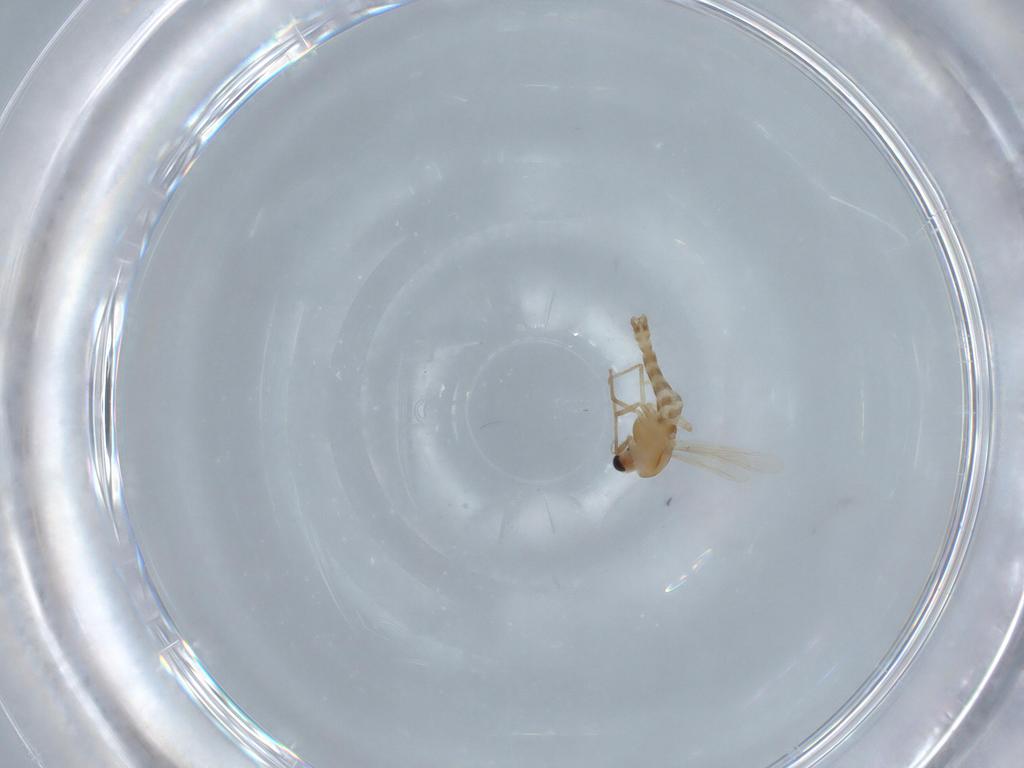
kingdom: Animalia
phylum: Arthropoda
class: Insecta
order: Diptera
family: Chironomidae
